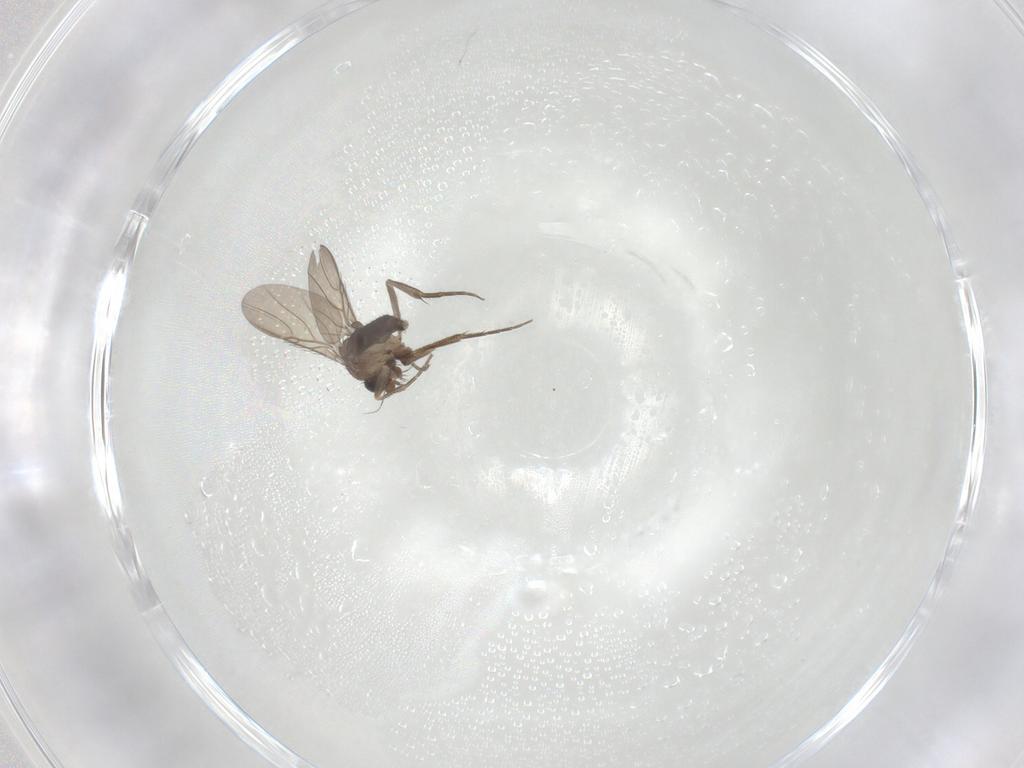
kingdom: Animalia
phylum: Arthropoda
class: Insecta
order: Diptera
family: Phoridae
